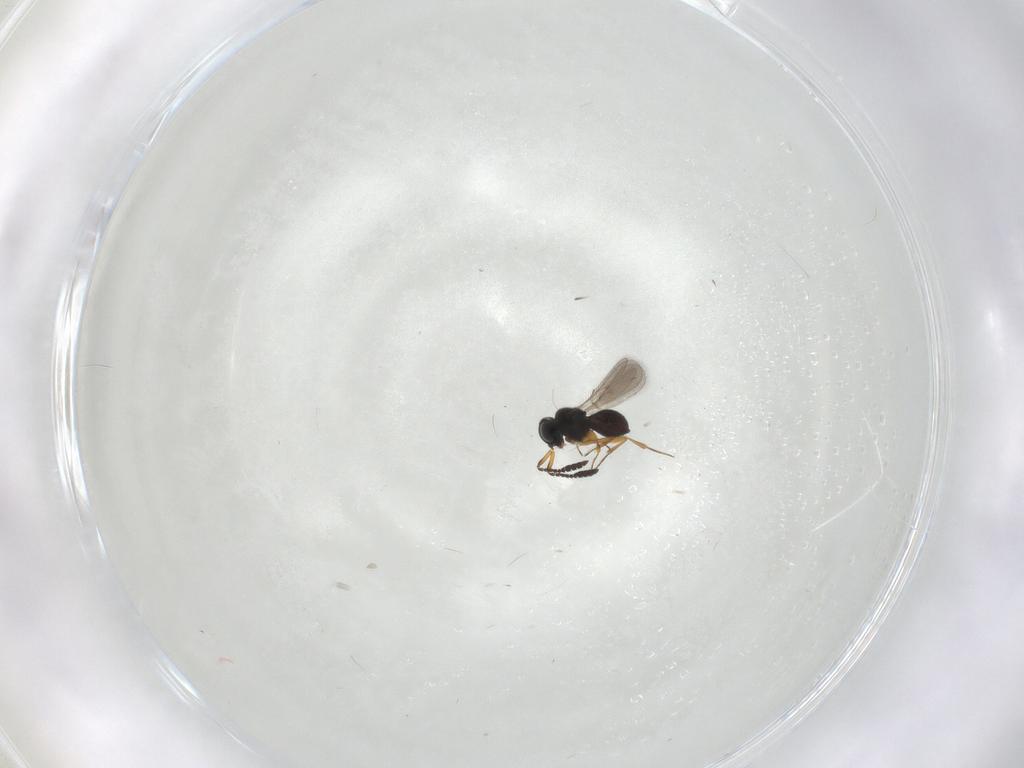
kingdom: Animalia
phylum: Arthropoda
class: Insecta
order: Hymenoptera
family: Scelionidae
